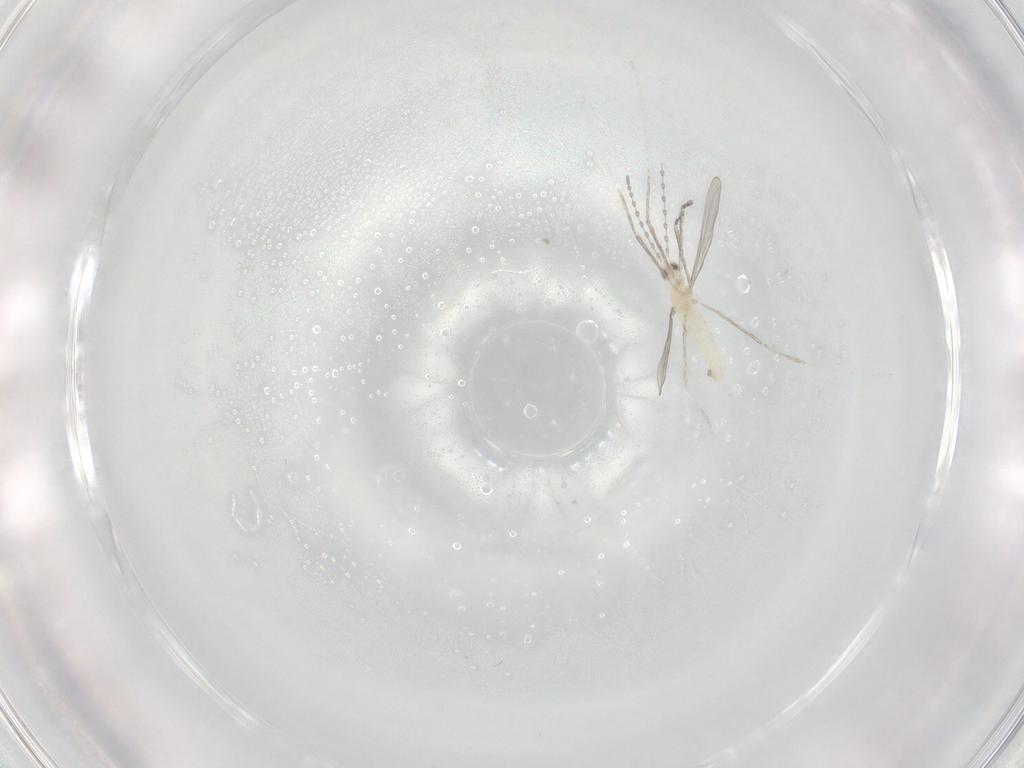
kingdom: Animalia
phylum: Arthropoda
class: Insecta
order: Diptera
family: Cecidomyiidae
